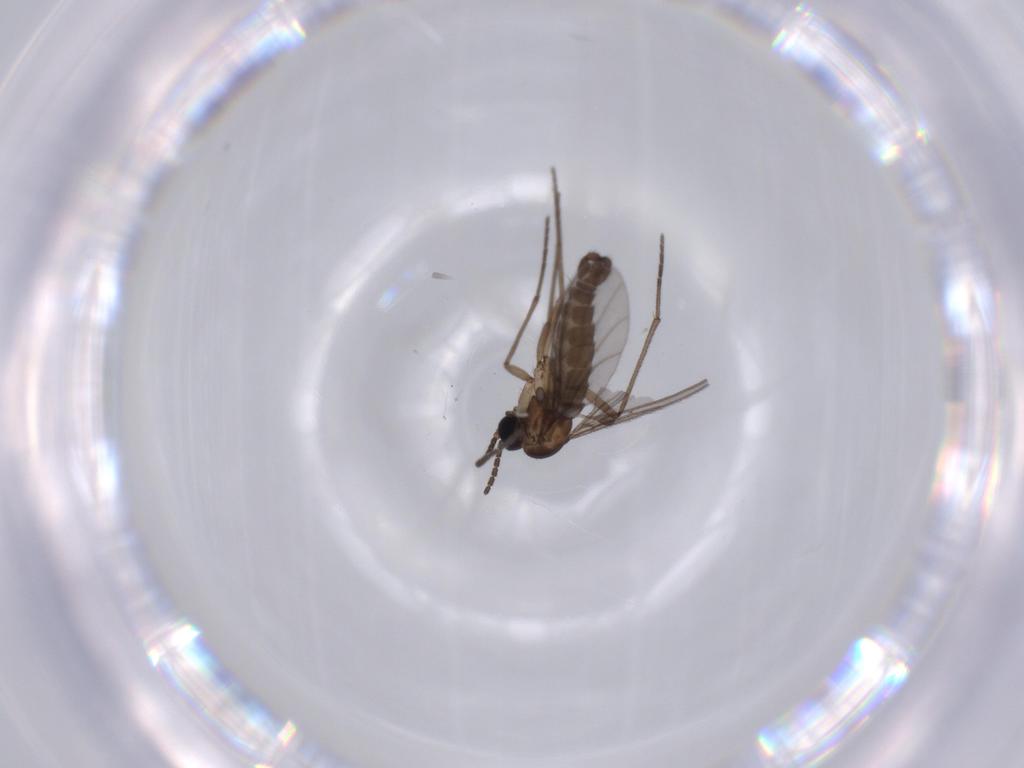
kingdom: Animalia
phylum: Arthropoda
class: Insecta
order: Diptera
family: Sciaridae
